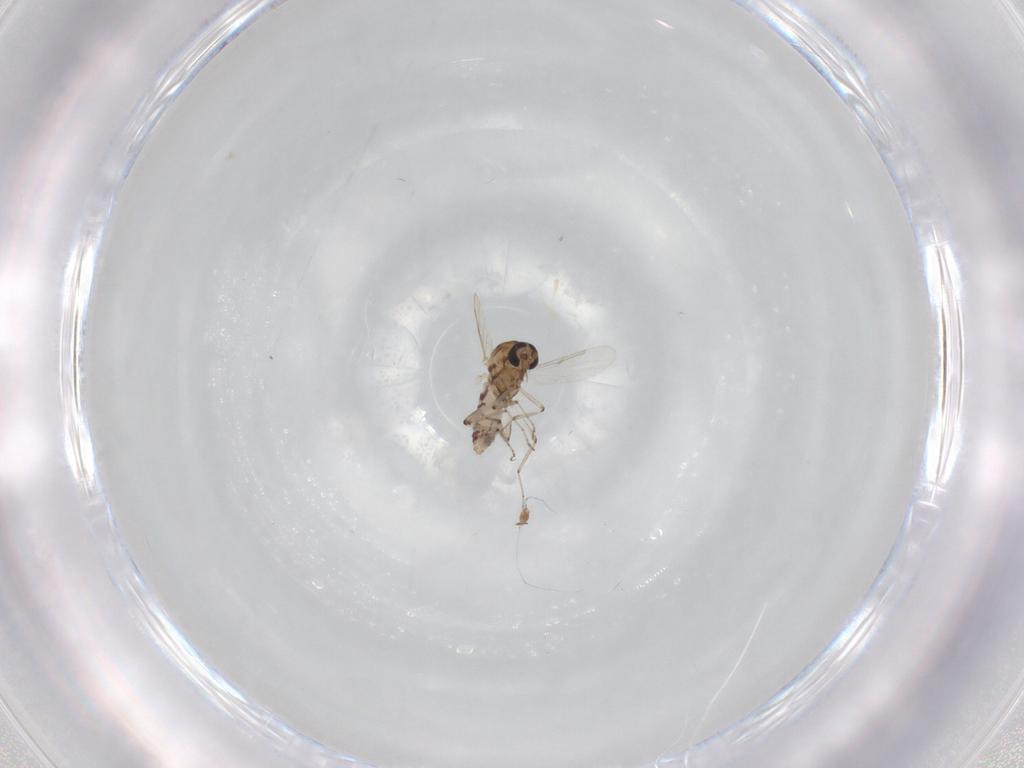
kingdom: Animalia
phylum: Arthropoda
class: Insecta
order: Diptera
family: Ceratopogonidae
